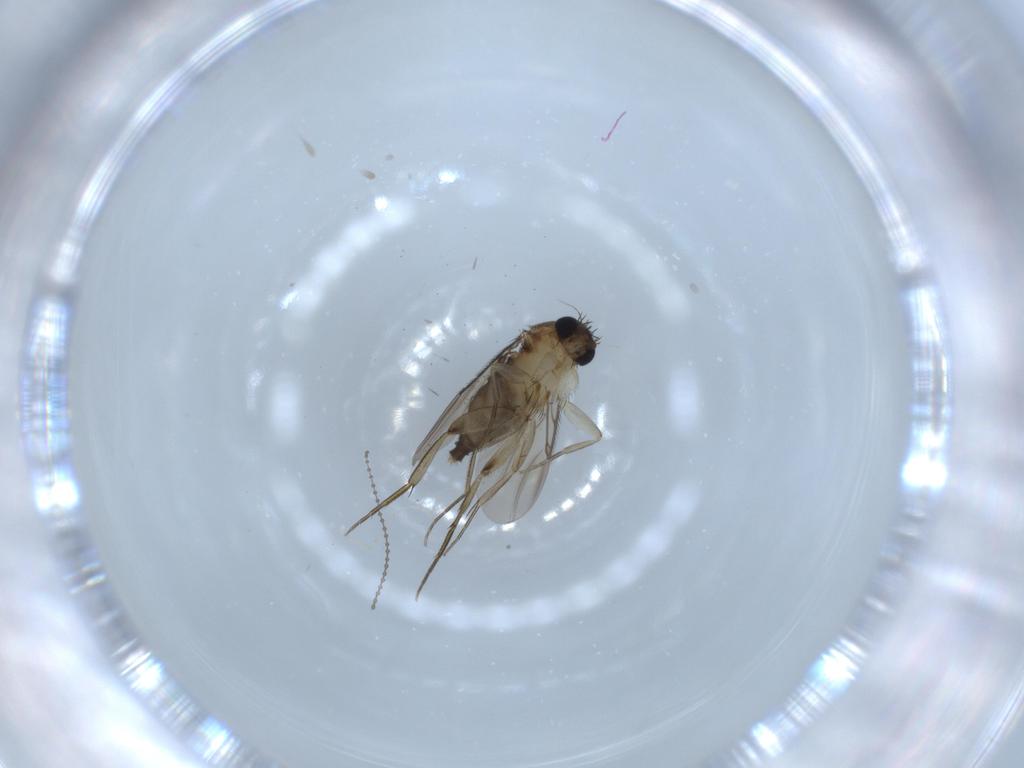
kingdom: Animalia
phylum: Arthropoda
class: Insecta
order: Diptera
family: Phoridae
